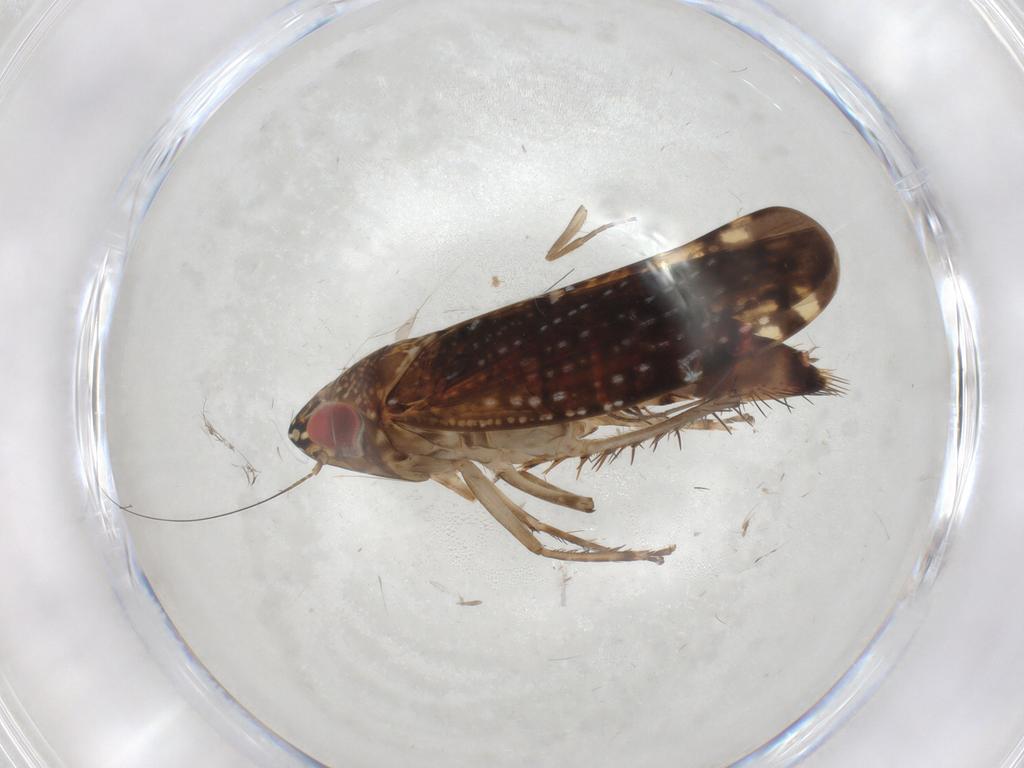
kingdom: Animalia
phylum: Arthropoda
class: Insecta
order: Hemiptera
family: Cicadellidae
